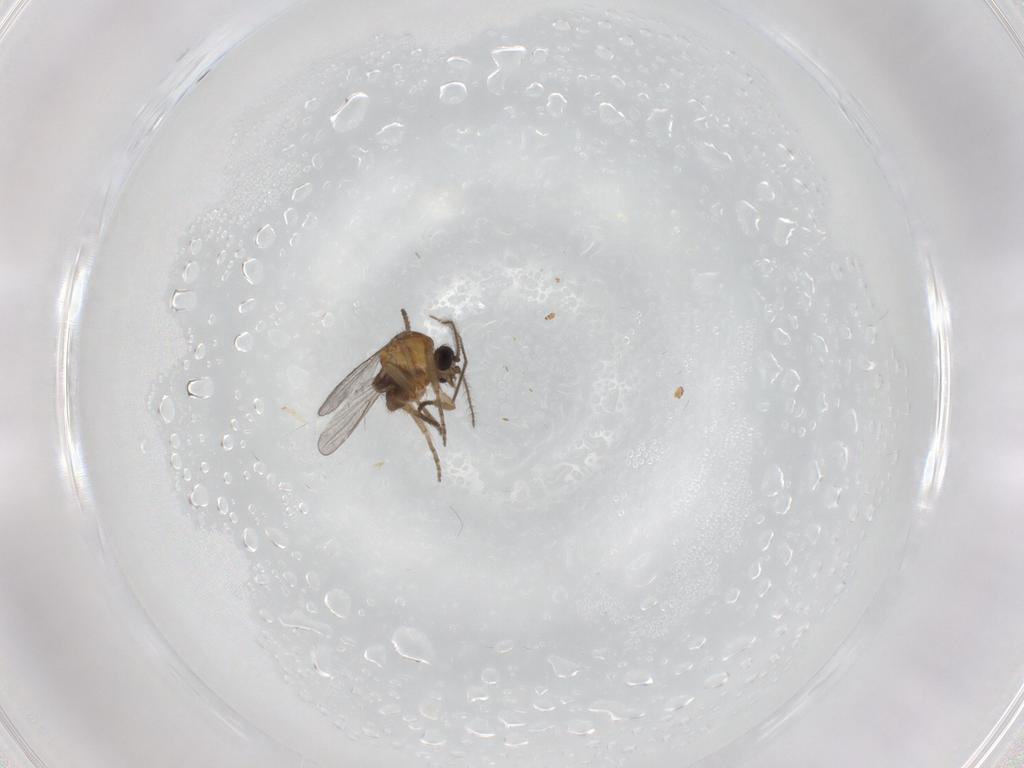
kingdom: Animalia
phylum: Arthropoda
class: Insecta
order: Diptera
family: Ceratopogonidae
